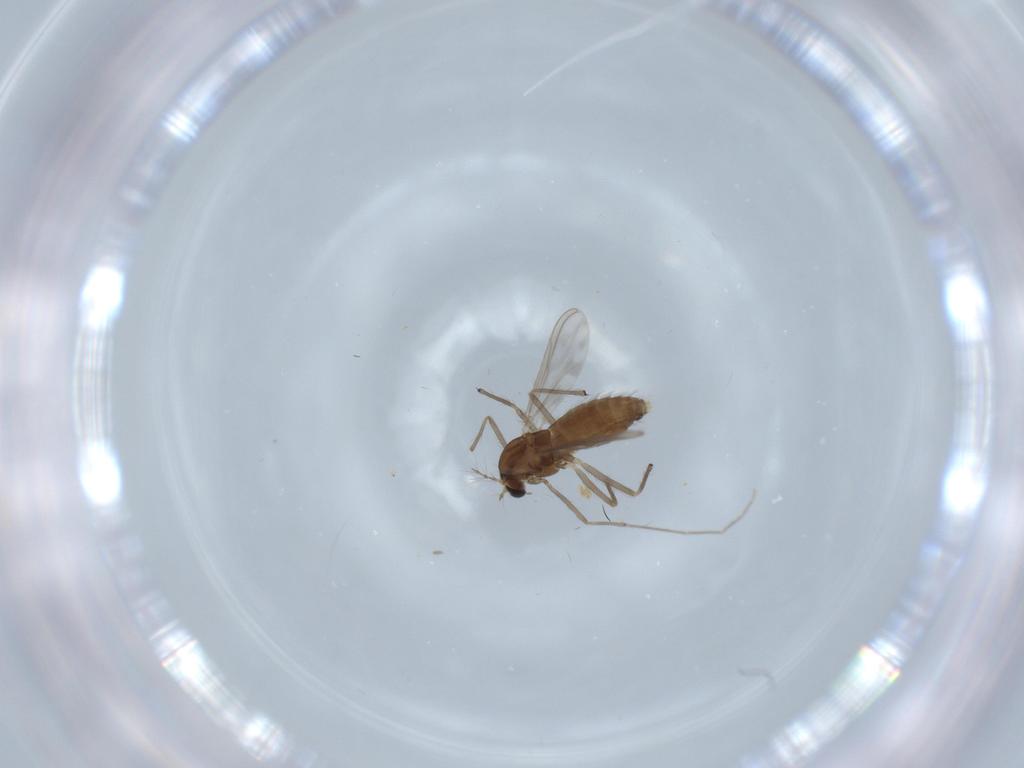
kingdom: Animalia
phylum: Arthropoda
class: Insecta
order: Diptera
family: Chironomidae
